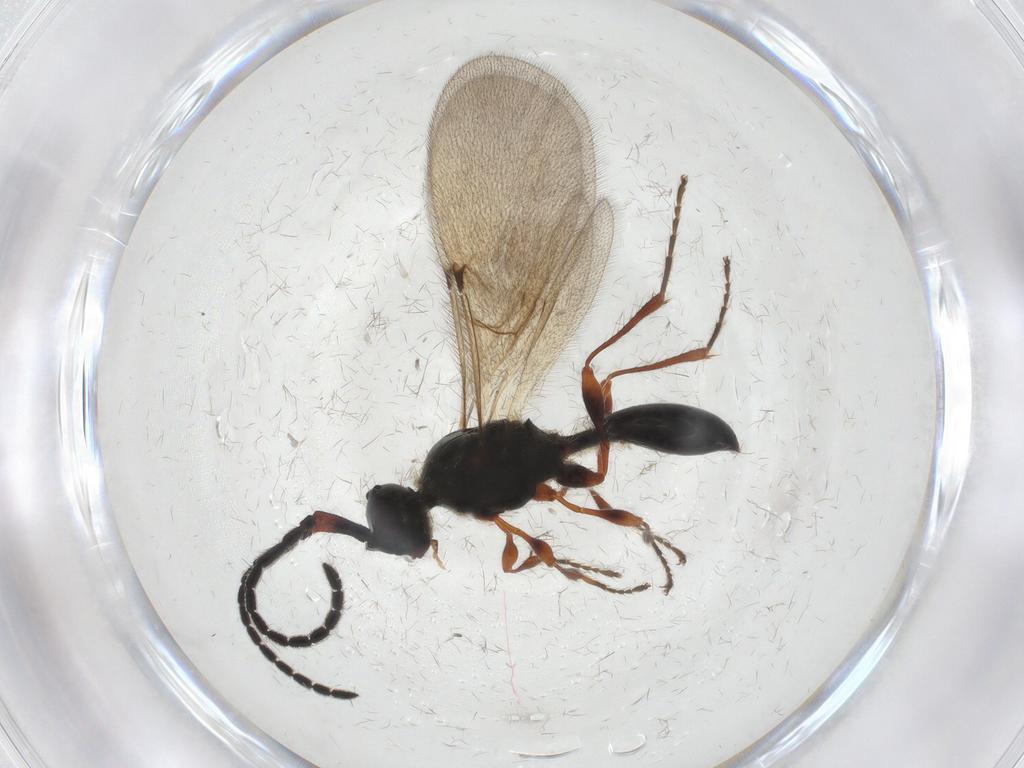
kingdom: Animalia
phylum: Arthropoda
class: Insecta
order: Hymenoptera
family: Diapriidae
